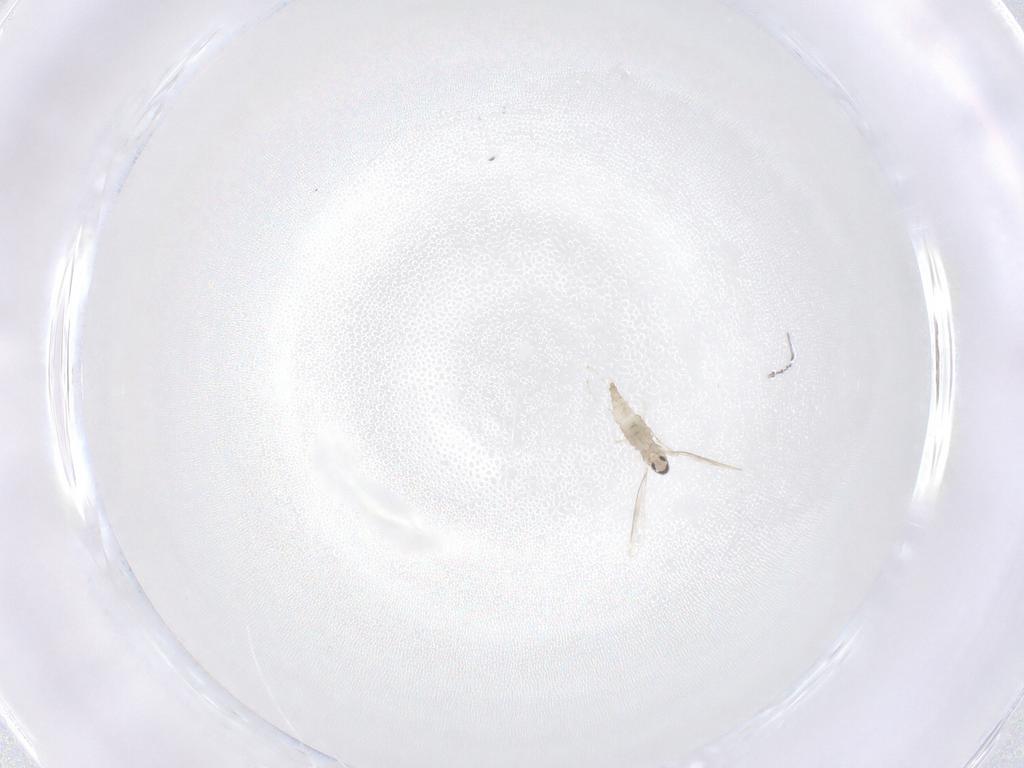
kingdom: Animalia
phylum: Arthropoda
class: Insecta
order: Diptera
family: Cecidomyiidae
